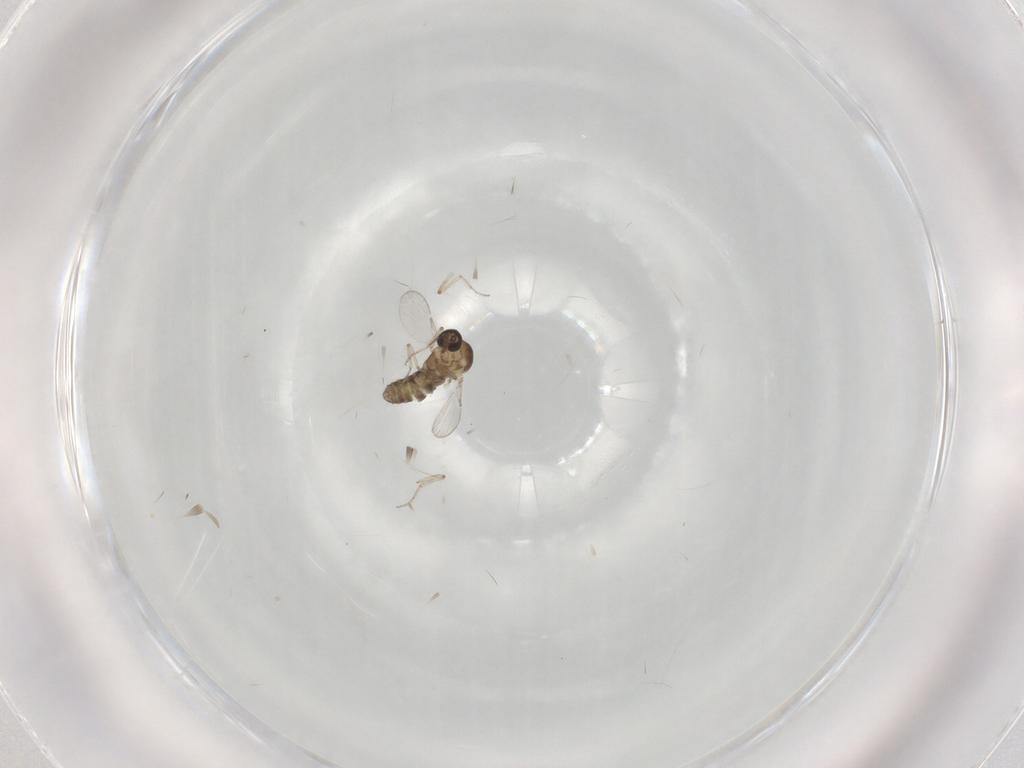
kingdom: Animalia
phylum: Arthropoda
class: Insecta
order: Diptera
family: Ceratopogonidae
